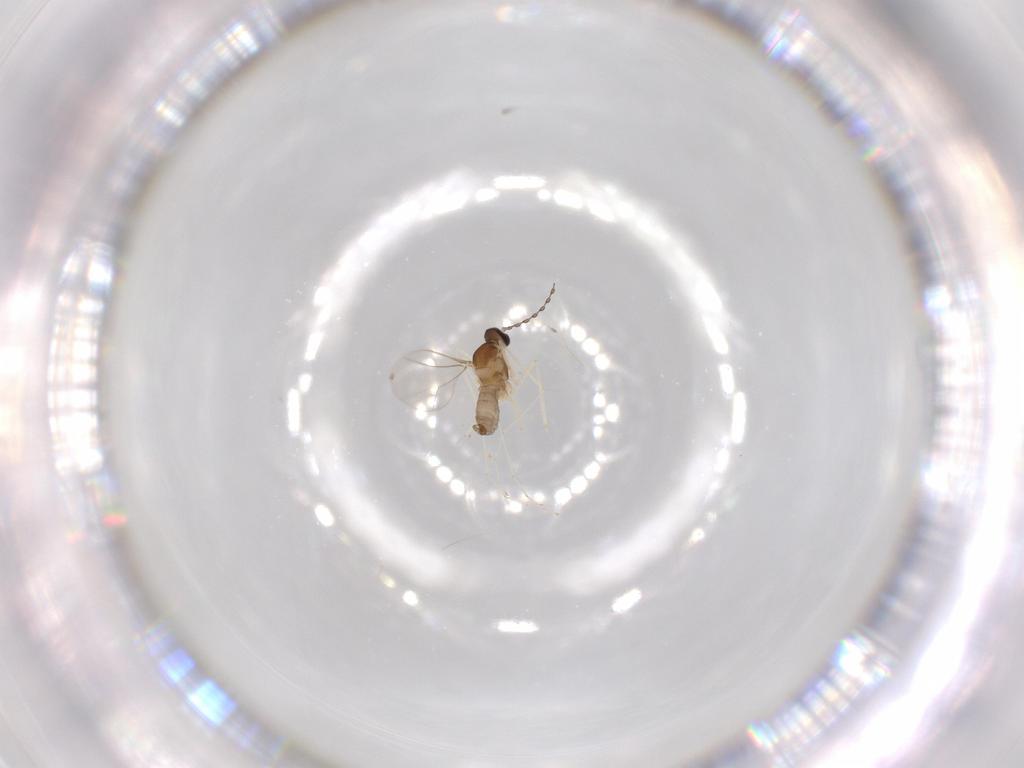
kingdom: Animalia
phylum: Arthropoda
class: Insecta
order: Diptera
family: Cecidomyiidae
